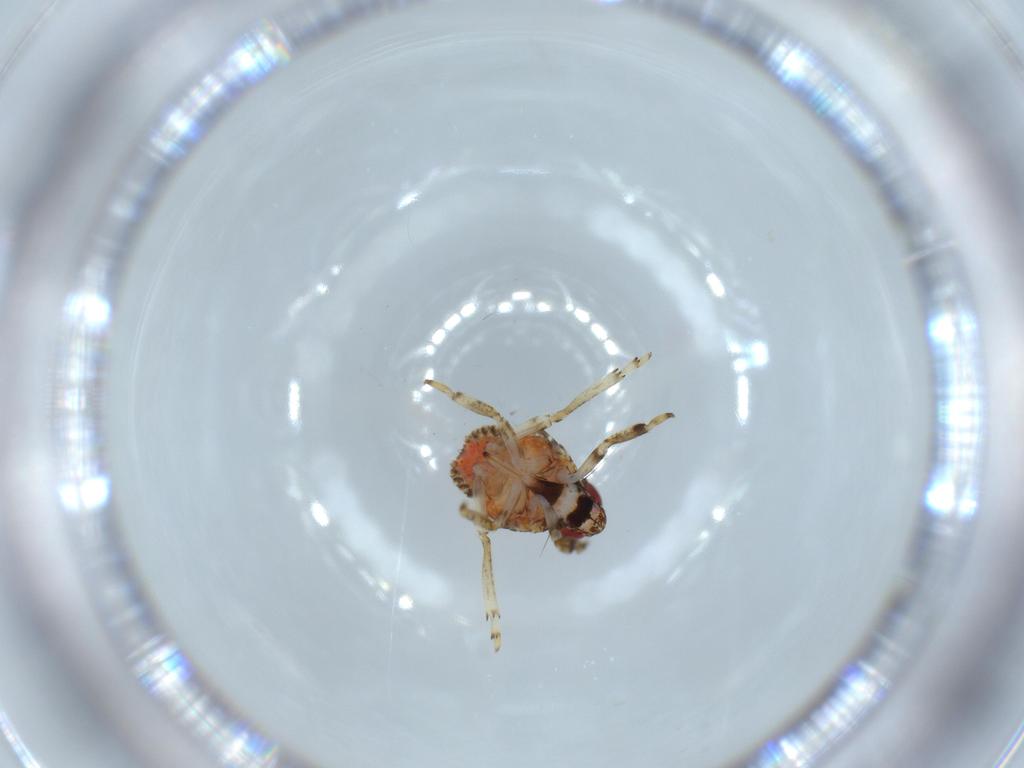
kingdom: Animalia
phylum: Arthropoda
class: Insecta
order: Hemiptera
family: Issidae
